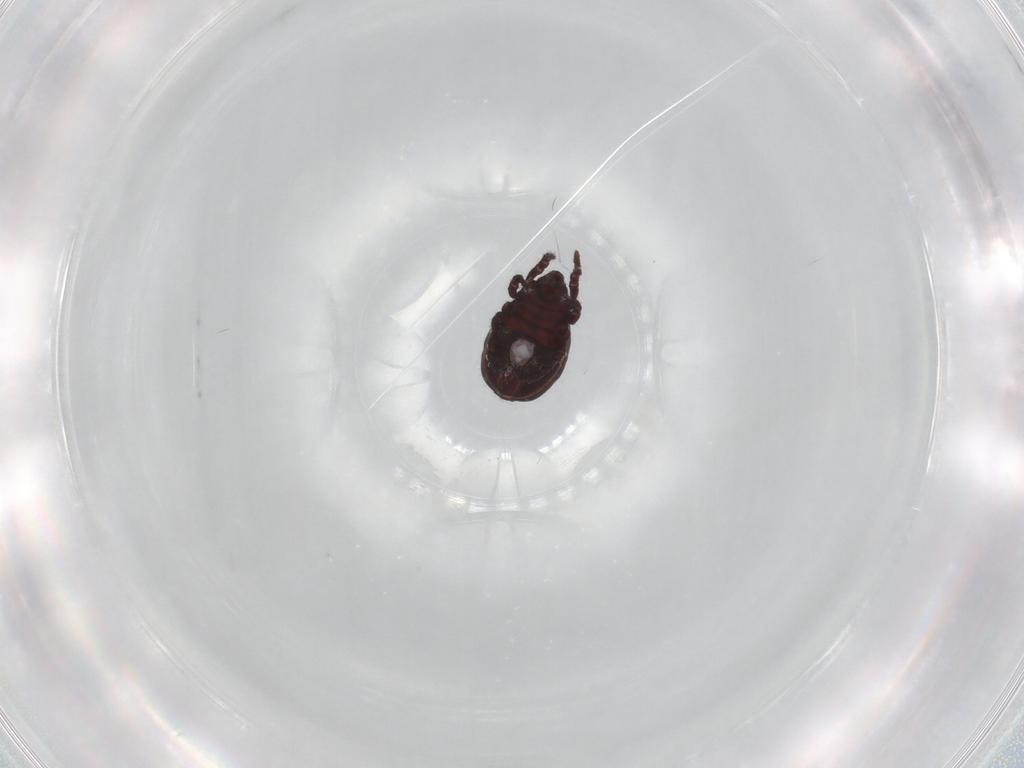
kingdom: Animalia
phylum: Arthropoda
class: Arachnida
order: Sarcoptiformes
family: Hermanniidae
